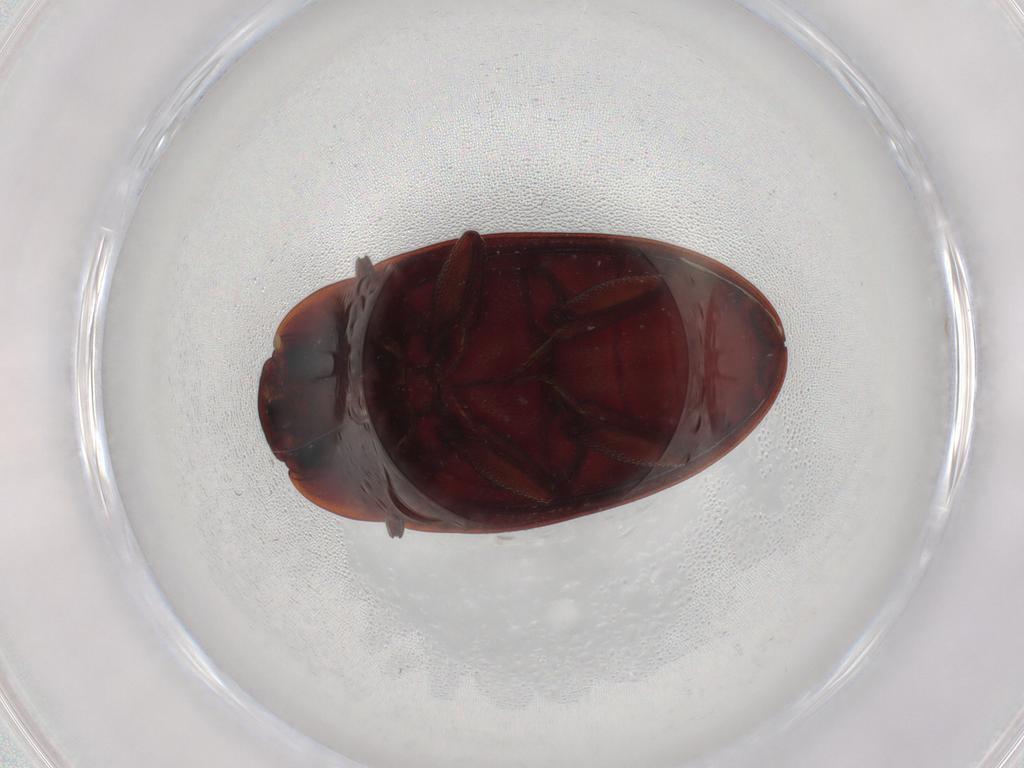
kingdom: Animalia
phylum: Arthropoda
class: Insecta
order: Coleoptera
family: Zopheridae
